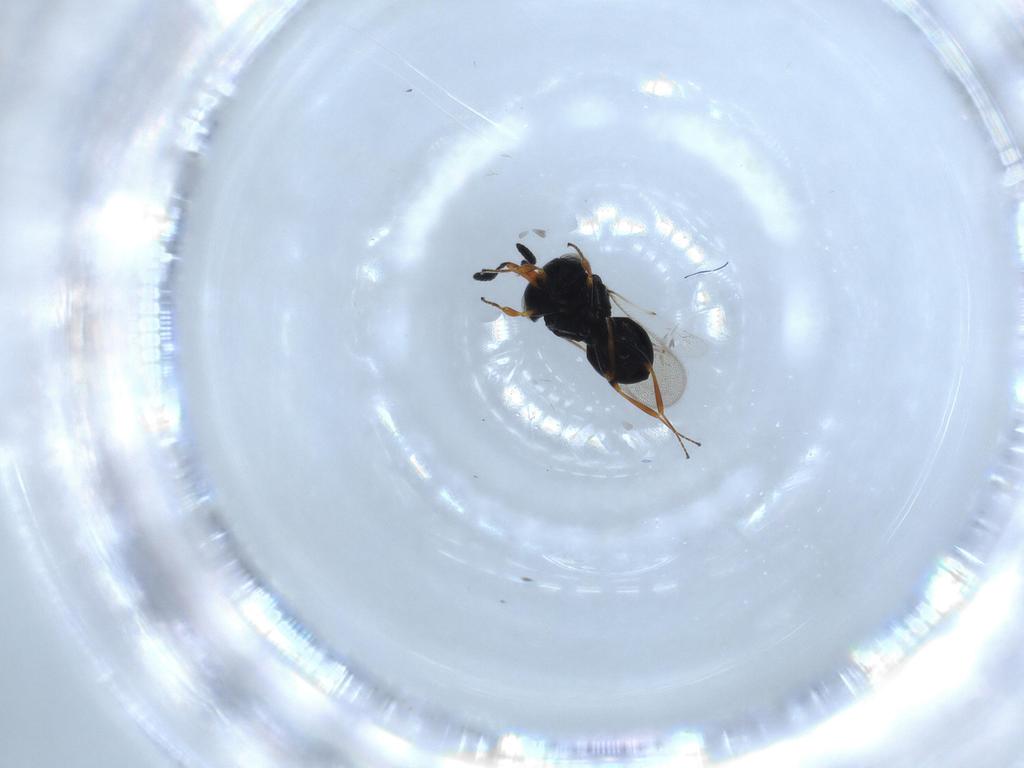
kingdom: Animalia
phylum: Arthropoda
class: Insecta
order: Hymenoptera
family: Scelionidae
